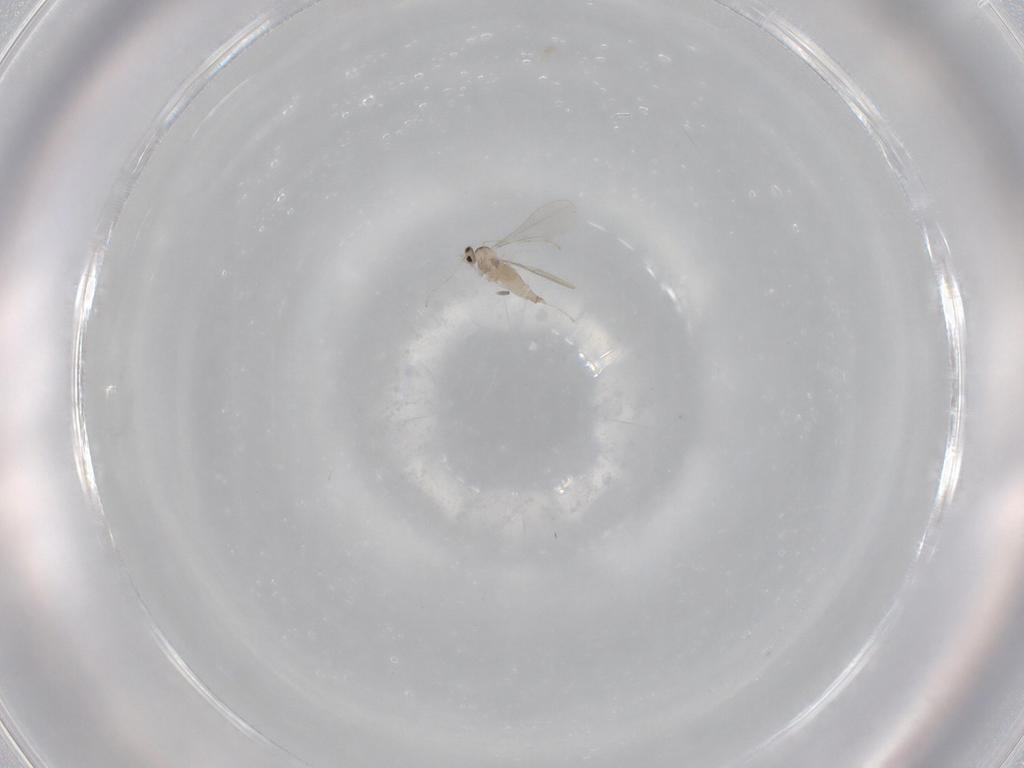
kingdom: Animalia
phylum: Arthropoda
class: Insecta
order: Diptera
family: Cecidomyiidae
